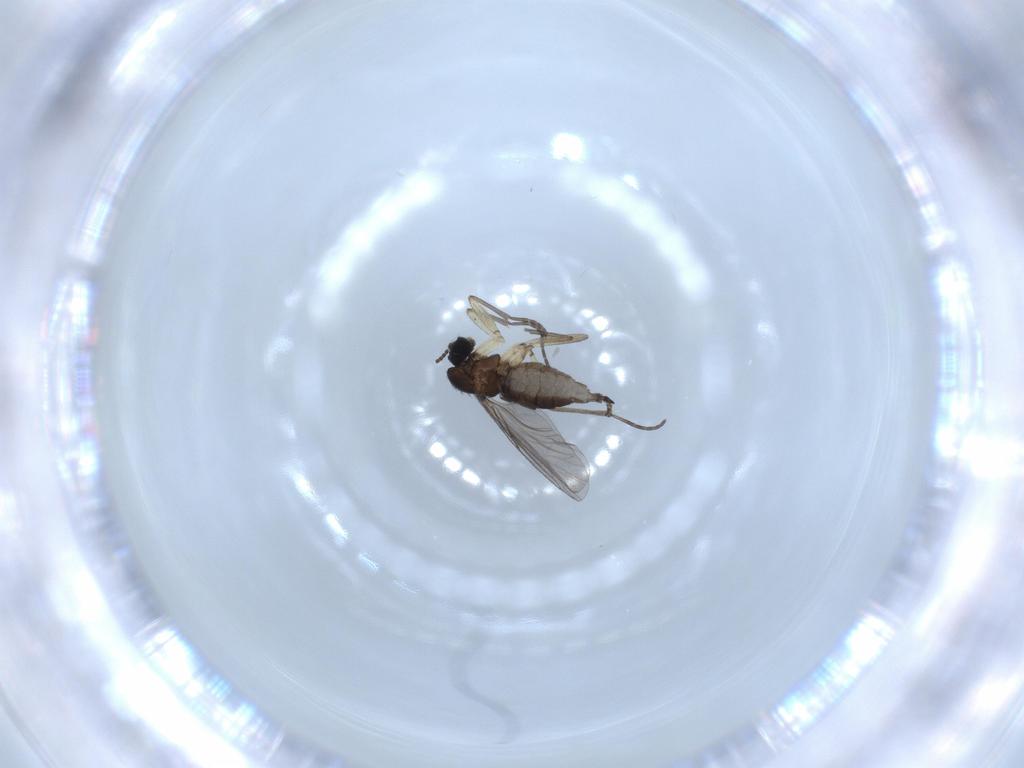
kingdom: Animalia
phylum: Arthropoda
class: Insecta
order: Diptera
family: Sciaridae
